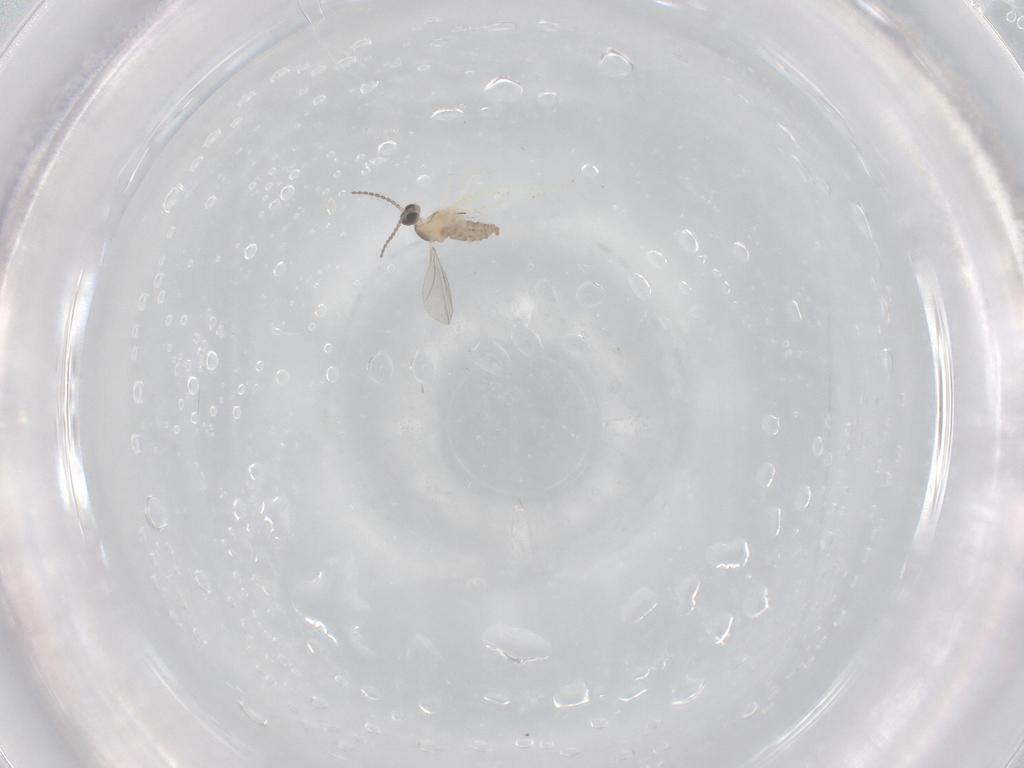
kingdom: Animalia
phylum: Arthropoda
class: Insecta
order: Diptera
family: Cecidomyiidae
